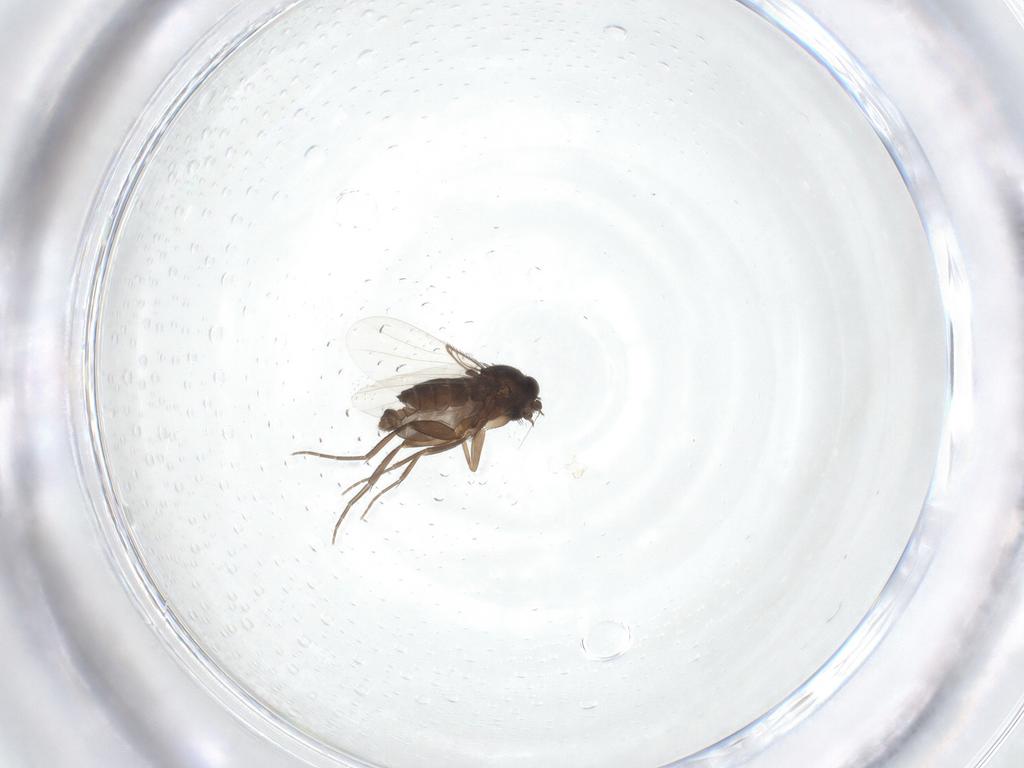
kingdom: Animalia
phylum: Arthropoda
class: Insecta
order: Diptera
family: Phoridae
